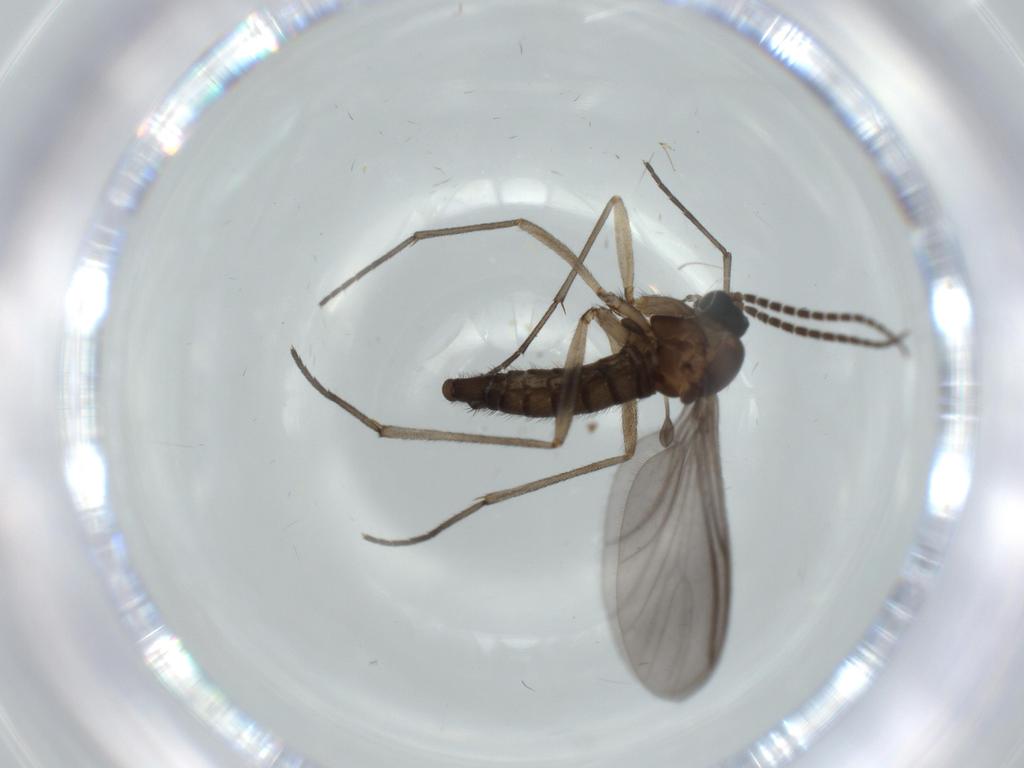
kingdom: Animalia
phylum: Arthropoda
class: Insecta
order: Diptera
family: Sciaridae
